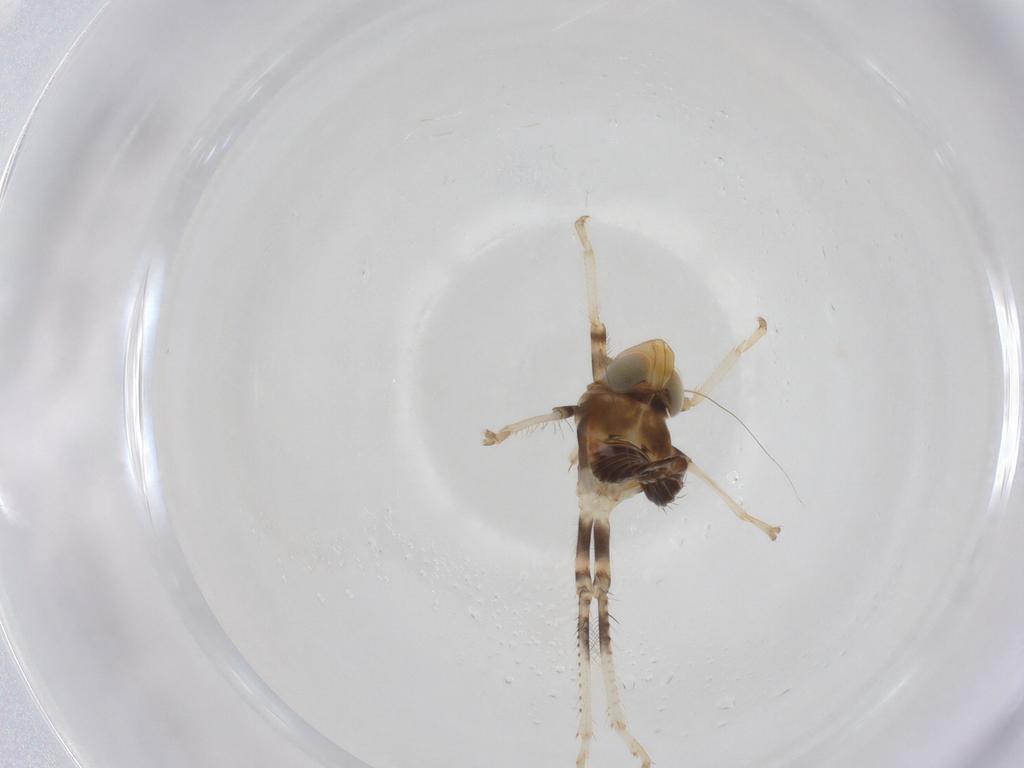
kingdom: Animalia
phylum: Arthropoda
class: Insecta
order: Hemiptera
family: Cicadellidae
